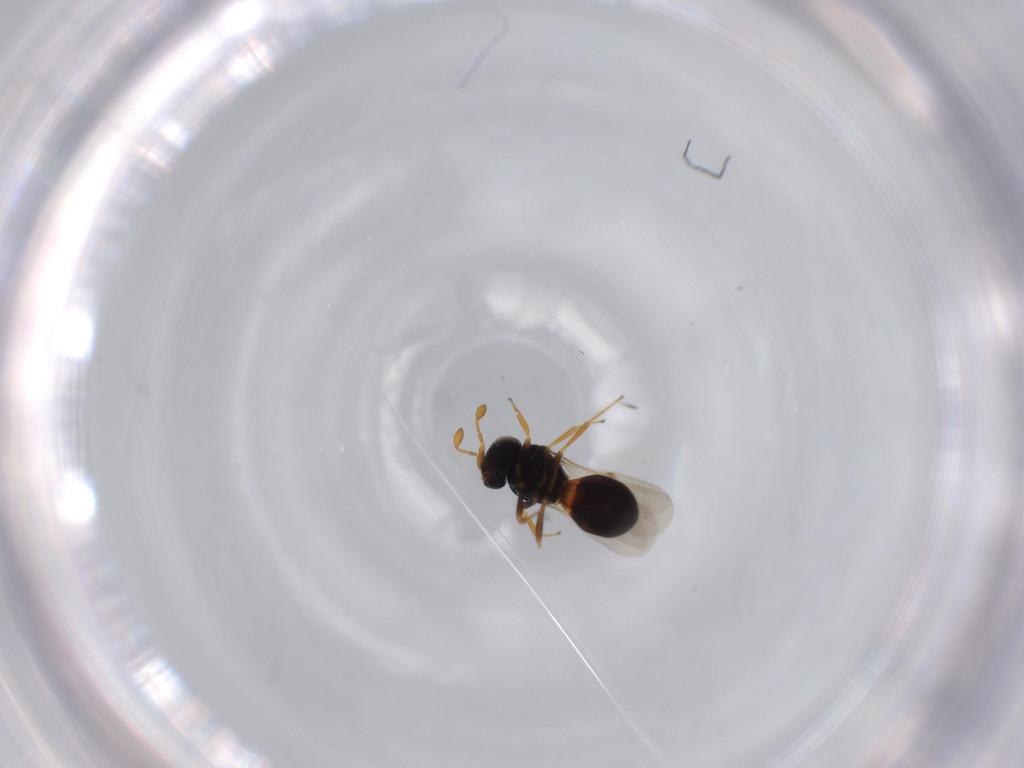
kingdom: Animalia
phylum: Arthropoda
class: Insecta
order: Hymenoptera
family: Scelionidae
